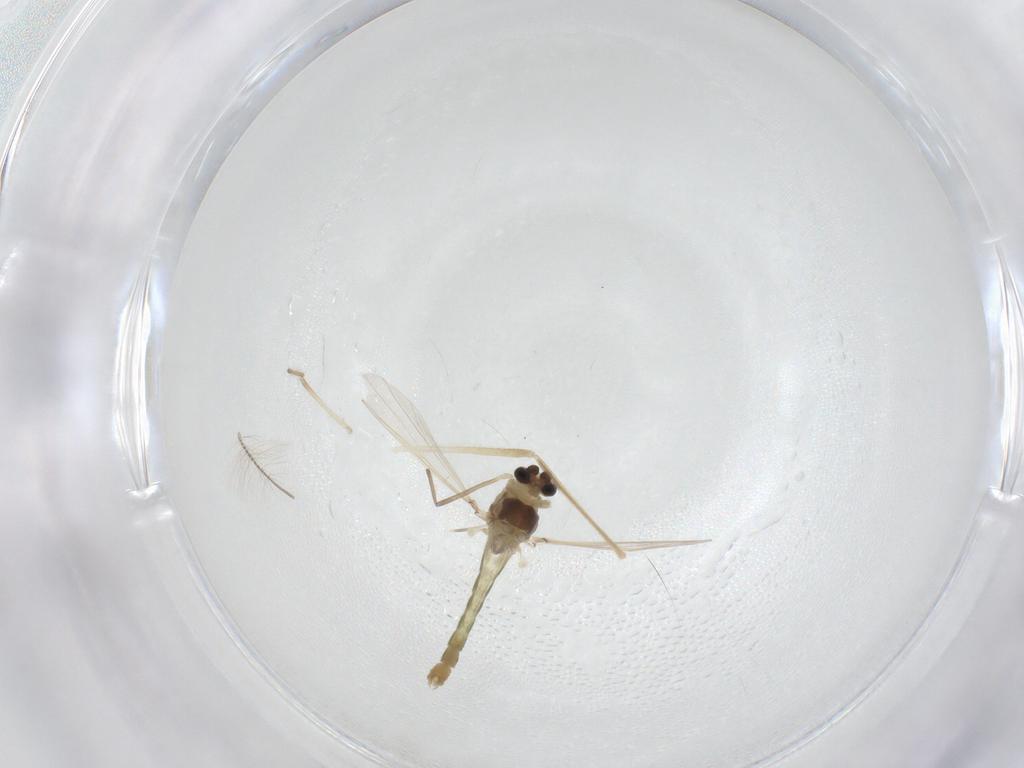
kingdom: Animalia
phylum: Arthropoda
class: Insecta
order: Diptera
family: Chironomidae
